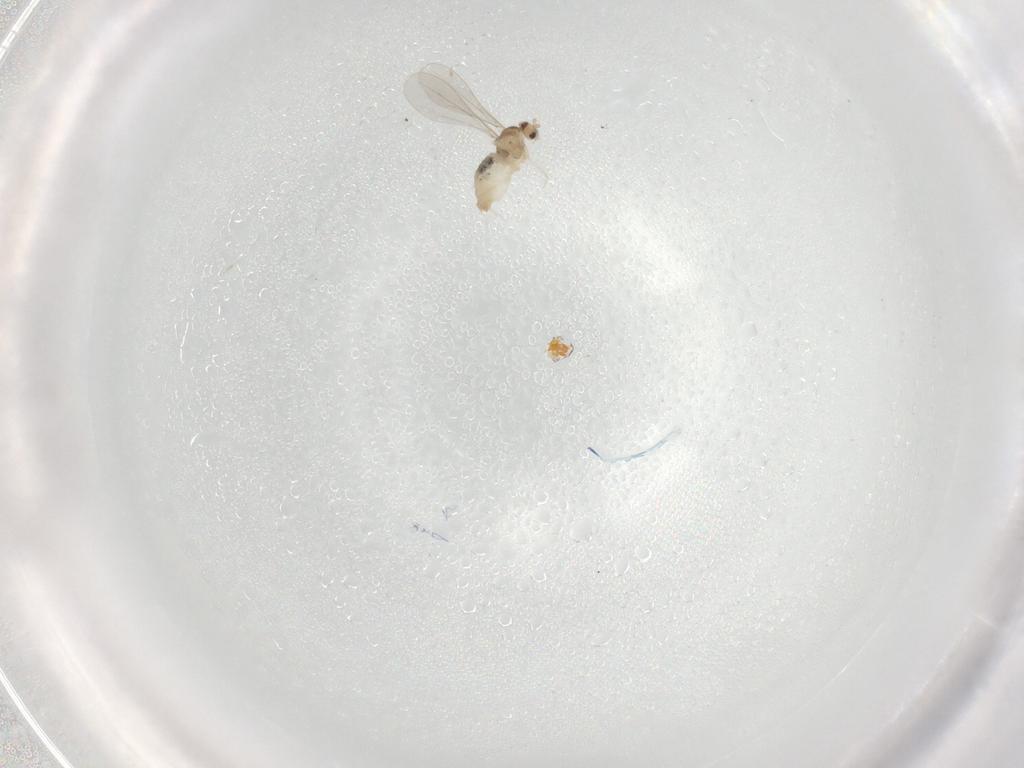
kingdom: Animalia
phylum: Arthropoda
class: Insecta
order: Diptera
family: Cecidomyiidae
